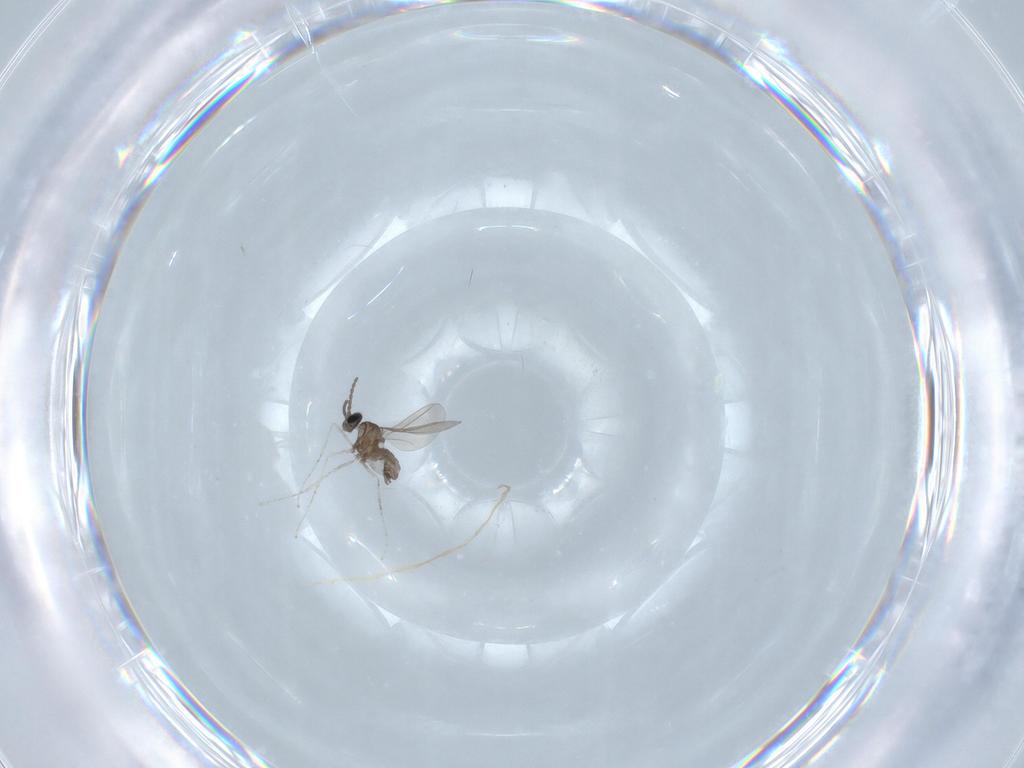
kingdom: Animalia
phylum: Arthropoda
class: Insecta
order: Diptera
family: Cecidomyiidae
